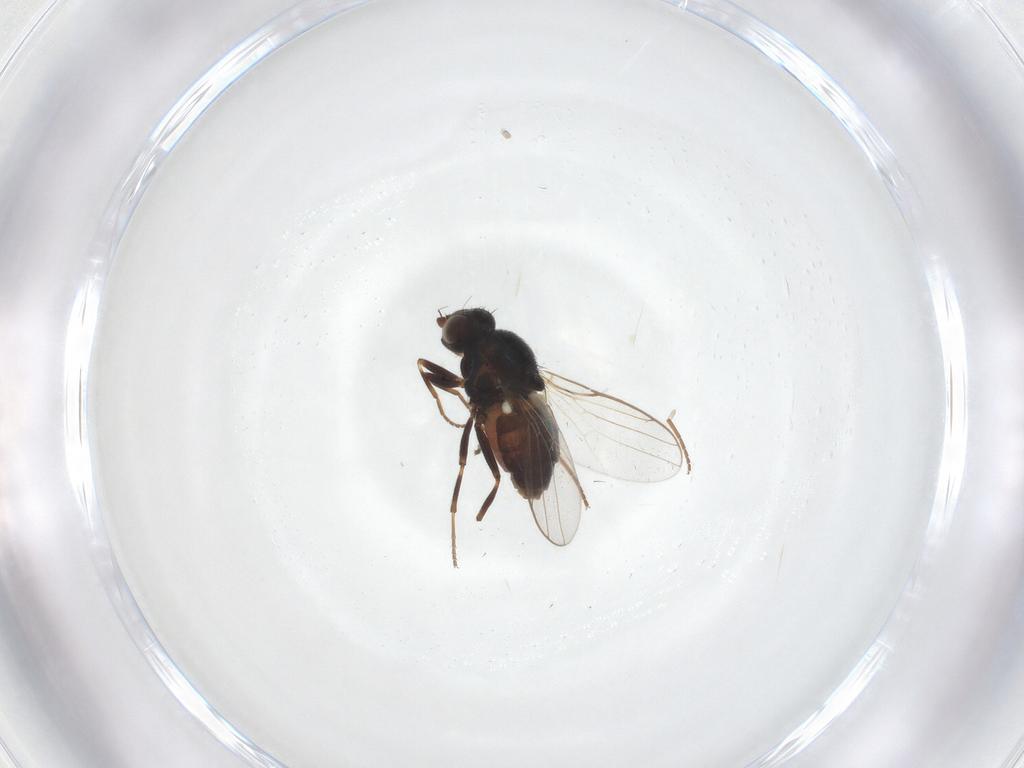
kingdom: Animalia
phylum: Arthropoda
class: Insecta
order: Diptera
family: Chloropidae
